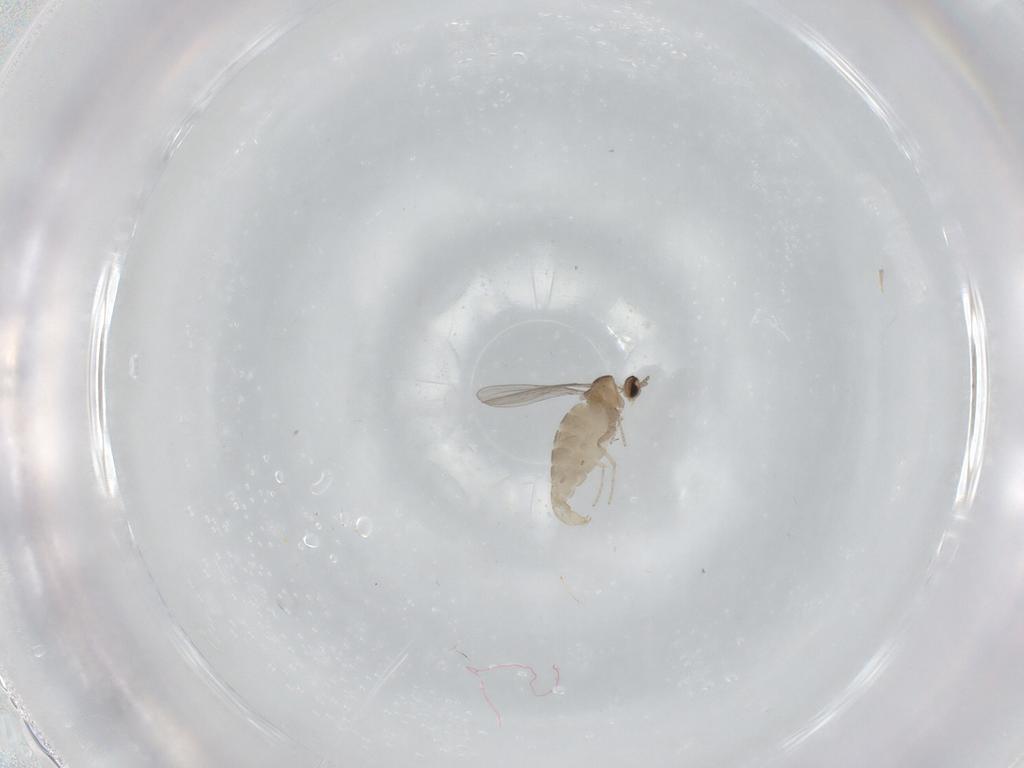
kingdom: Animalia
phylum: Arthropoda
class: Insecta
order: Diptera
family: Cecidomyiidae
